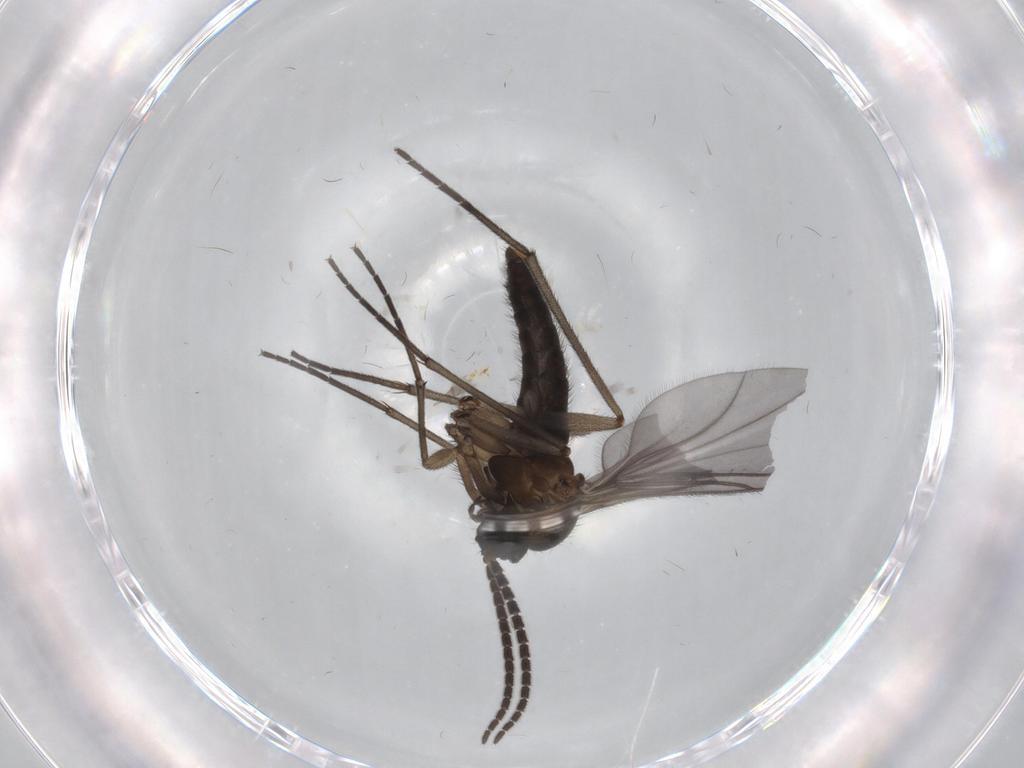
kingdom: Animalia
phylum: Arthropoda
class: Insecta
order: Diptera
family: Sciaridae
